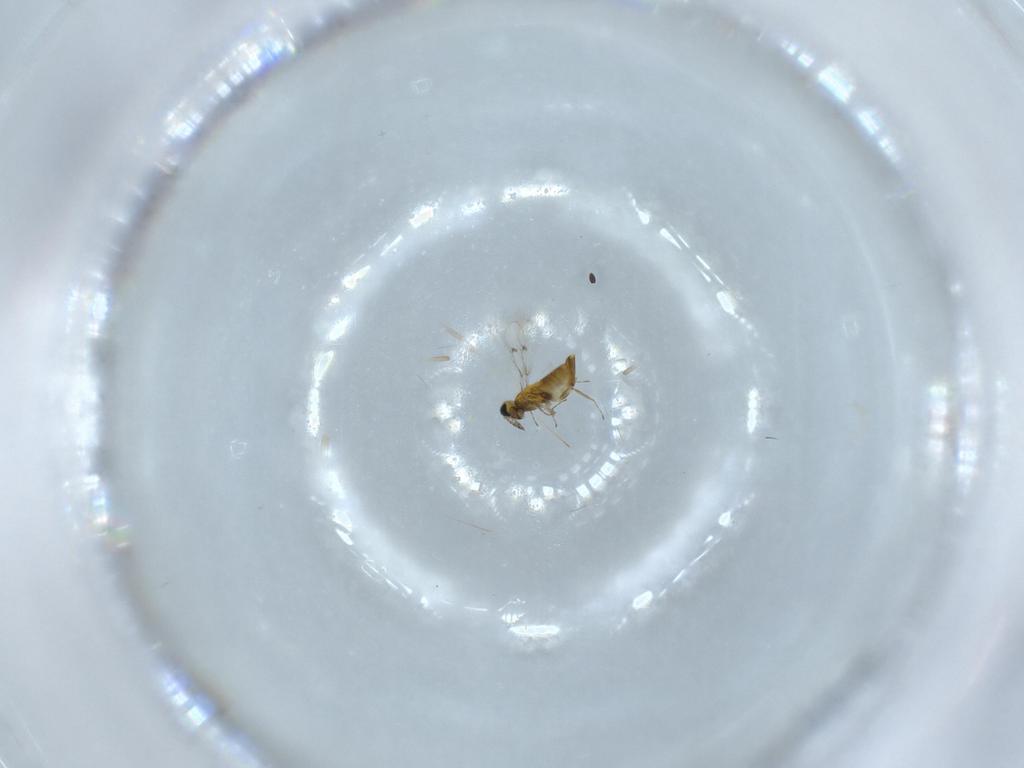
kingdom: Animalia
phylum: Arthropoda
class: Insecta
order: Hymenoptera
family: Trichogrammatidae
